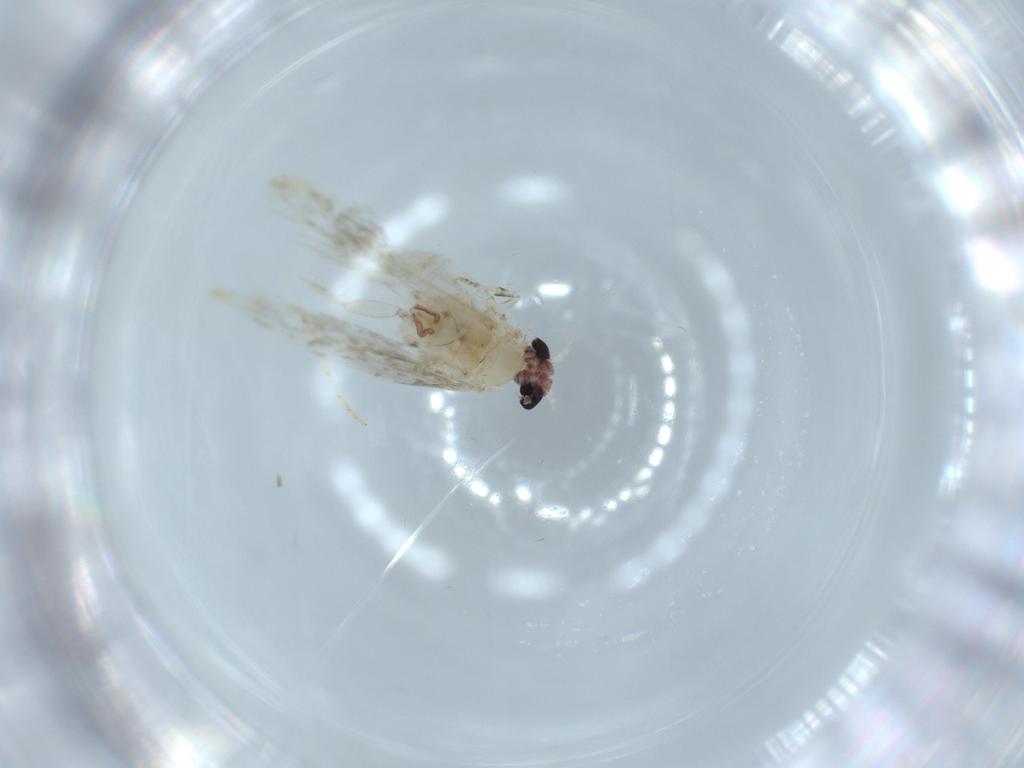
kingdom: Animalia
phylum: Arthropoda
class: Insecta
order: Lepidoptera
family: Tineidae
